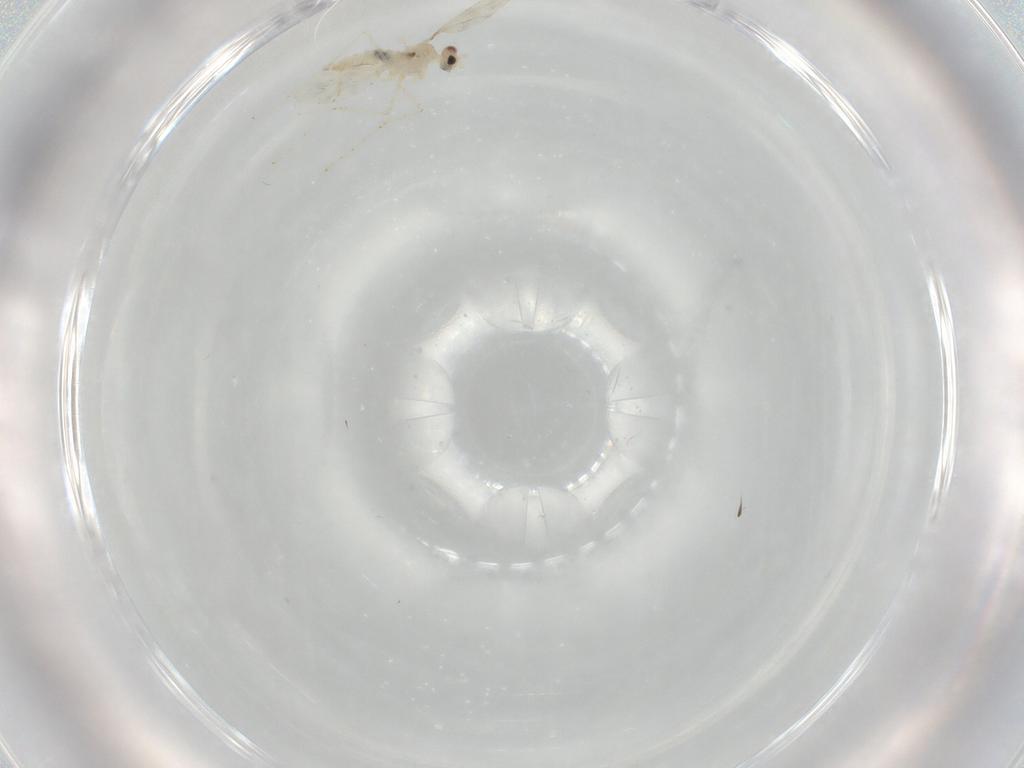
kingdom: Animalia
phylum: Arthropoda
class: Insecta
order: Diptera
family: Cecidomyiidae
